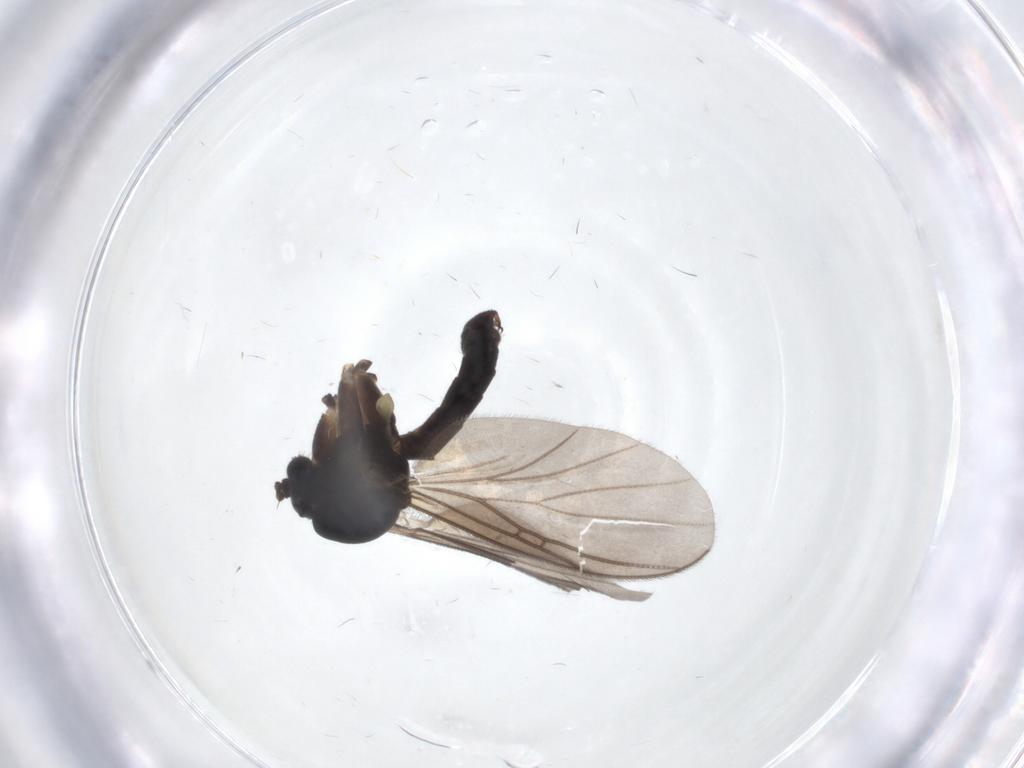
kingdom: Animalia
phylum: Arthropoda
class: Insecta
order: Diptera
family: Mycetophilidae
